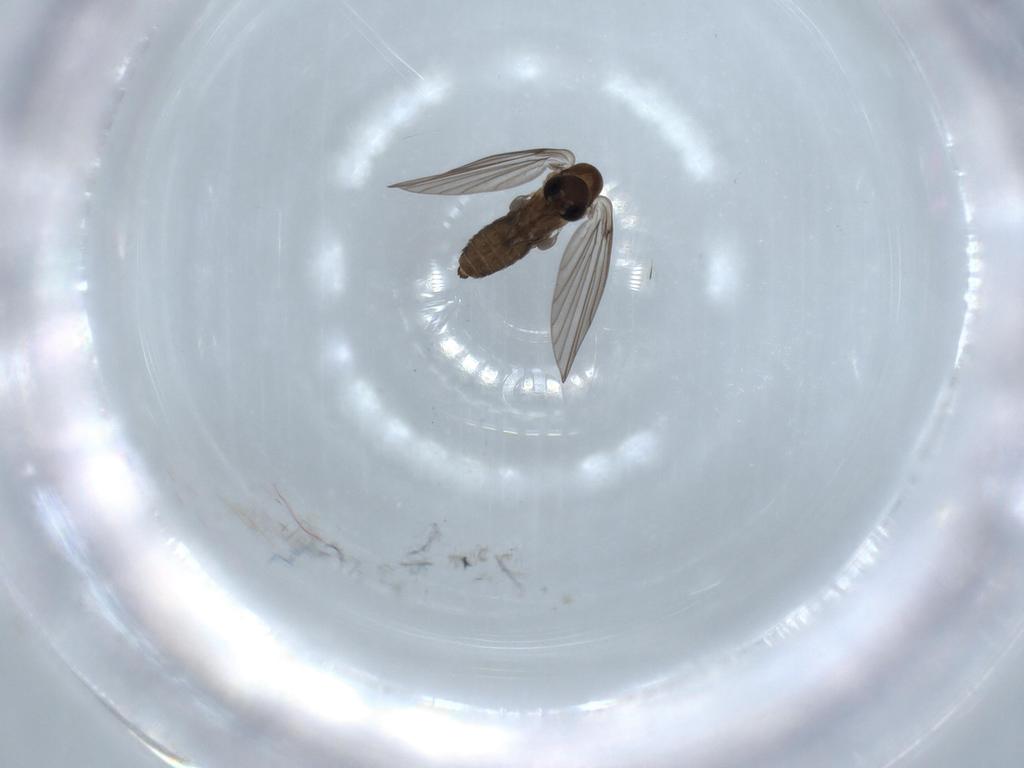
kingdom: Animalia
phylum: Arthropoda
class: Insecta
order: Diptera
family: Psychodidae
